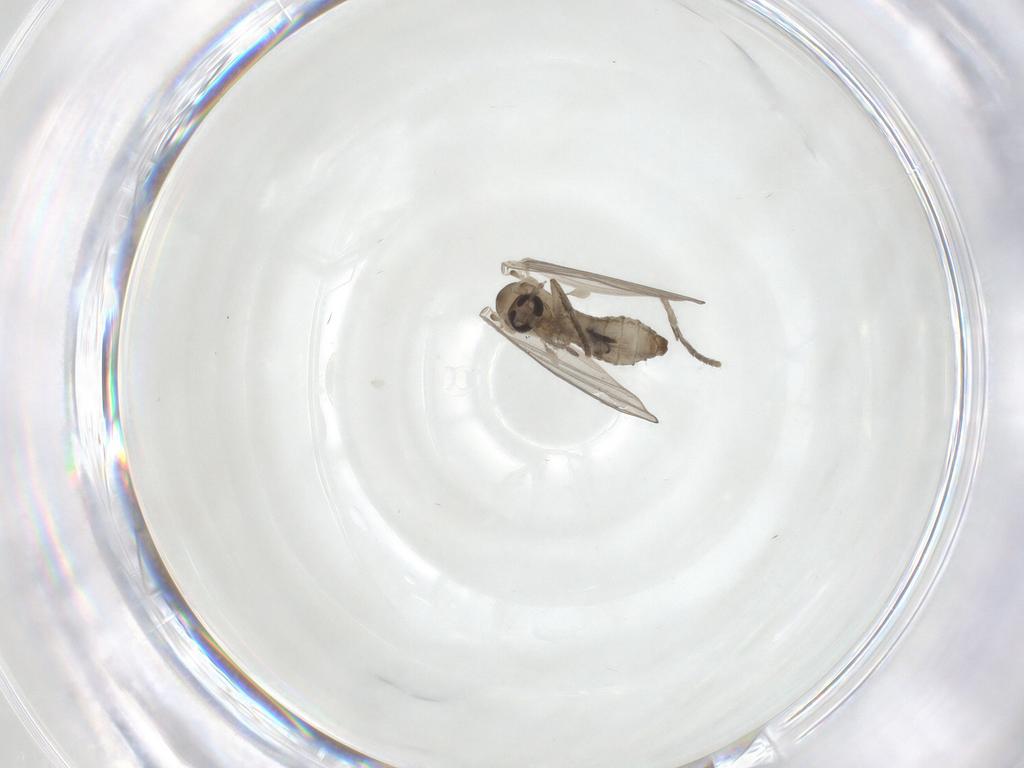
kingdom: Animalia
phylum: Arthropoda
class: Insecta
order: Diptera
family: Psychodidae
